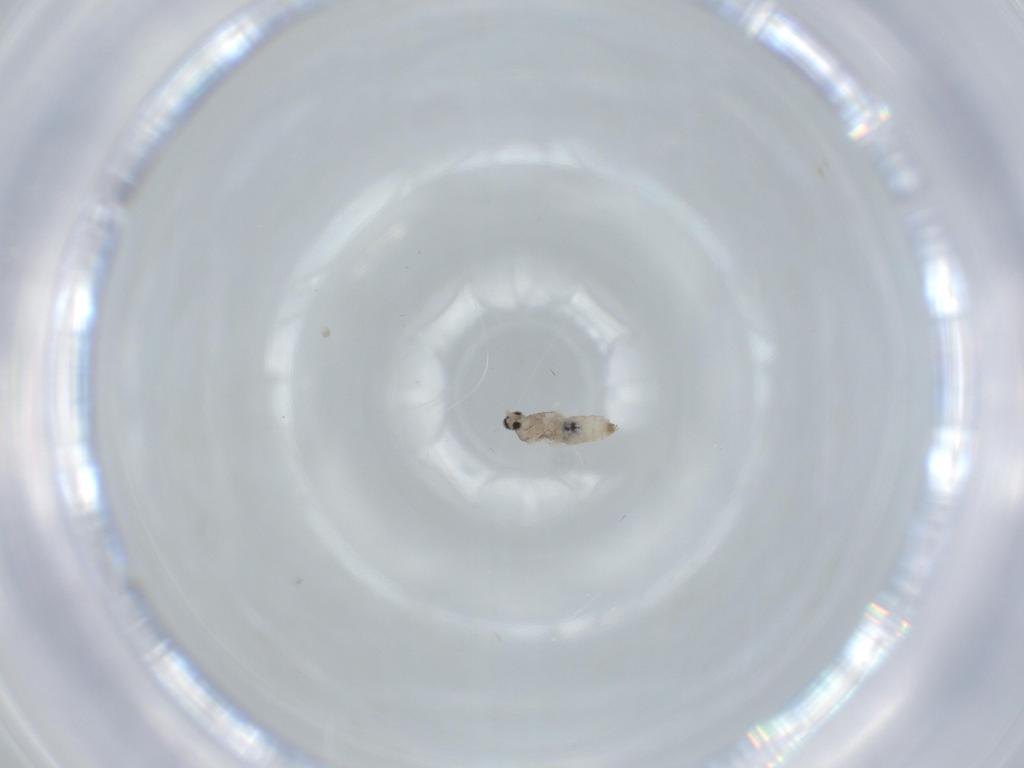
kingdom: Animalia
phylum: Arthropoda
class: Insecta
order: Diptera
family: Cecidomyiidae
